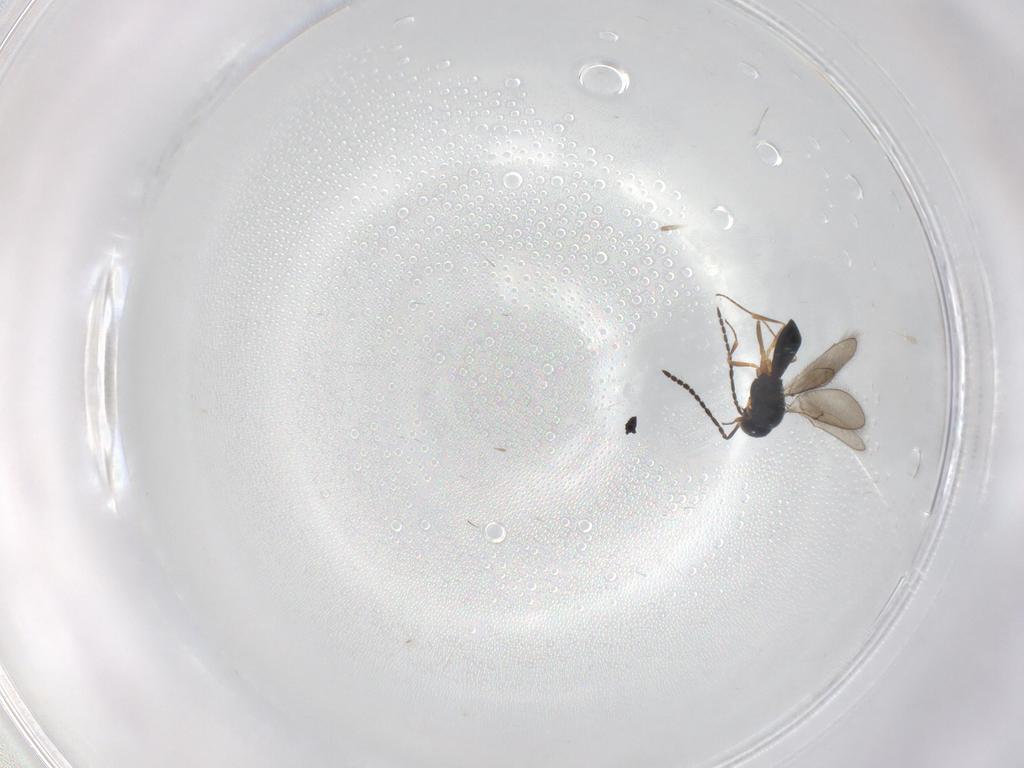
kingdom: Animalia
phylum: Arthropoda
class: Insecta
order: Hymenoptera
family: Scelionidae
